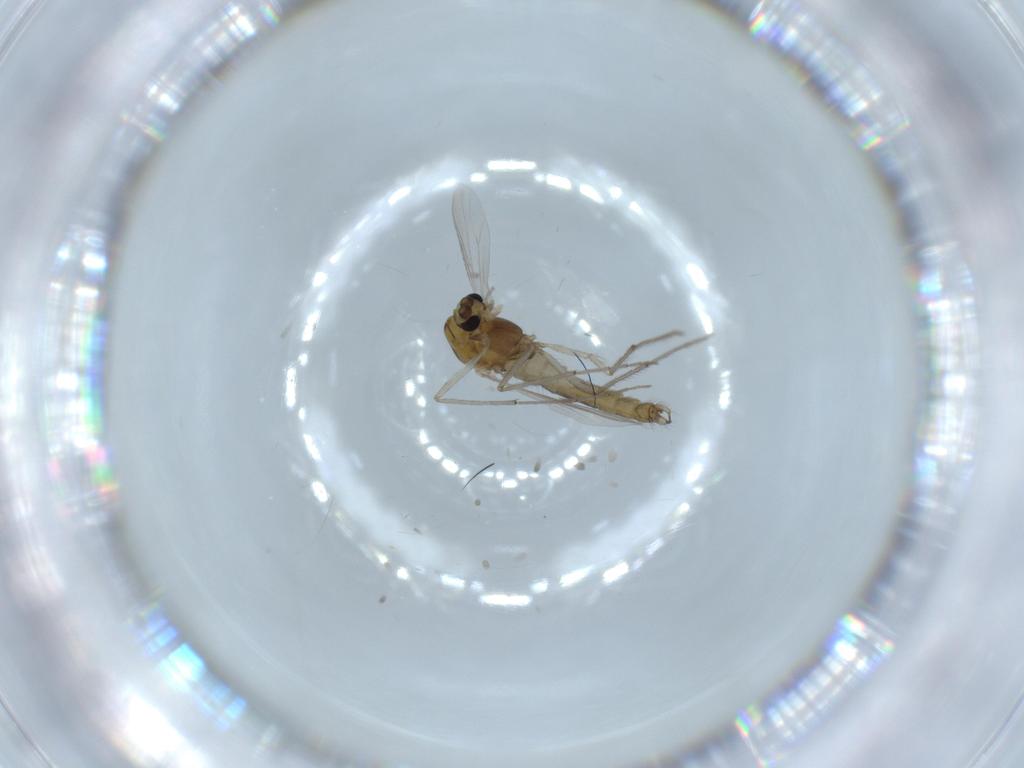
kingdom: Animalia
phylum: Arthropoda
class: Insecta
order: Diptera
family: Chironomidae
